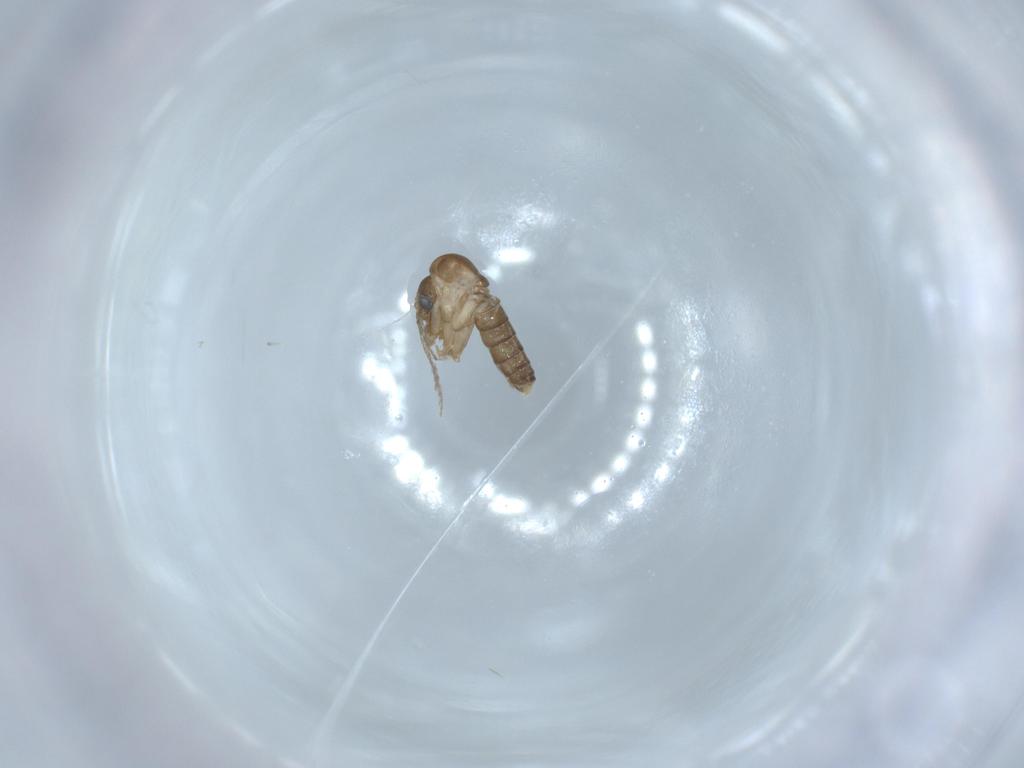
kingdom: Animalia
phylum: Arthropoda
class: Insecta
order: Diptera
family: Psychodidae
